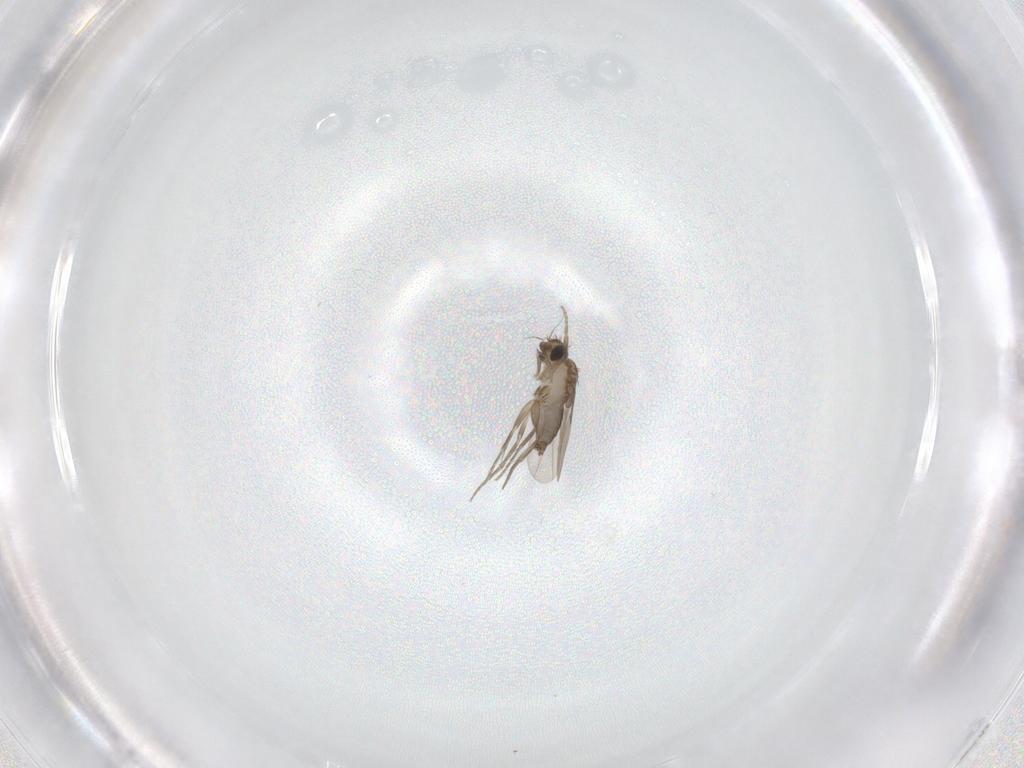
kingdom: Animalia
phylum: Arthropoda
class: Insecta
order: Diptera
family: Phoridae
